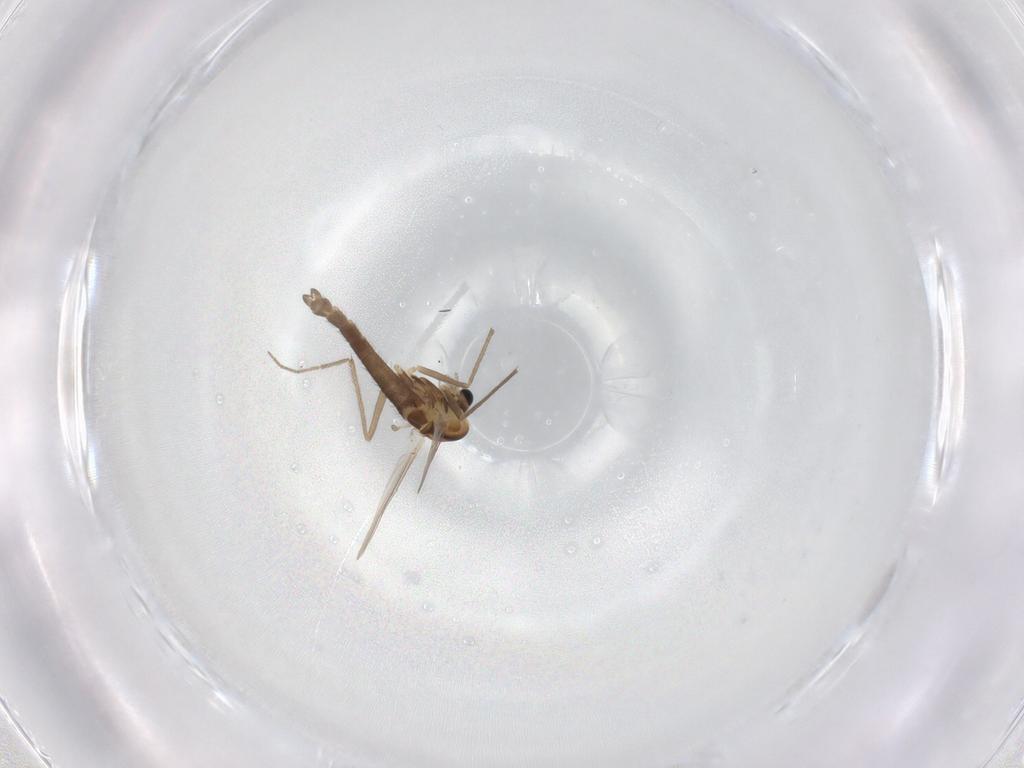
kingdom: Animalia
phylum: Arthropoda
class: Insecta
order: Diptera
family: Chironomidae
